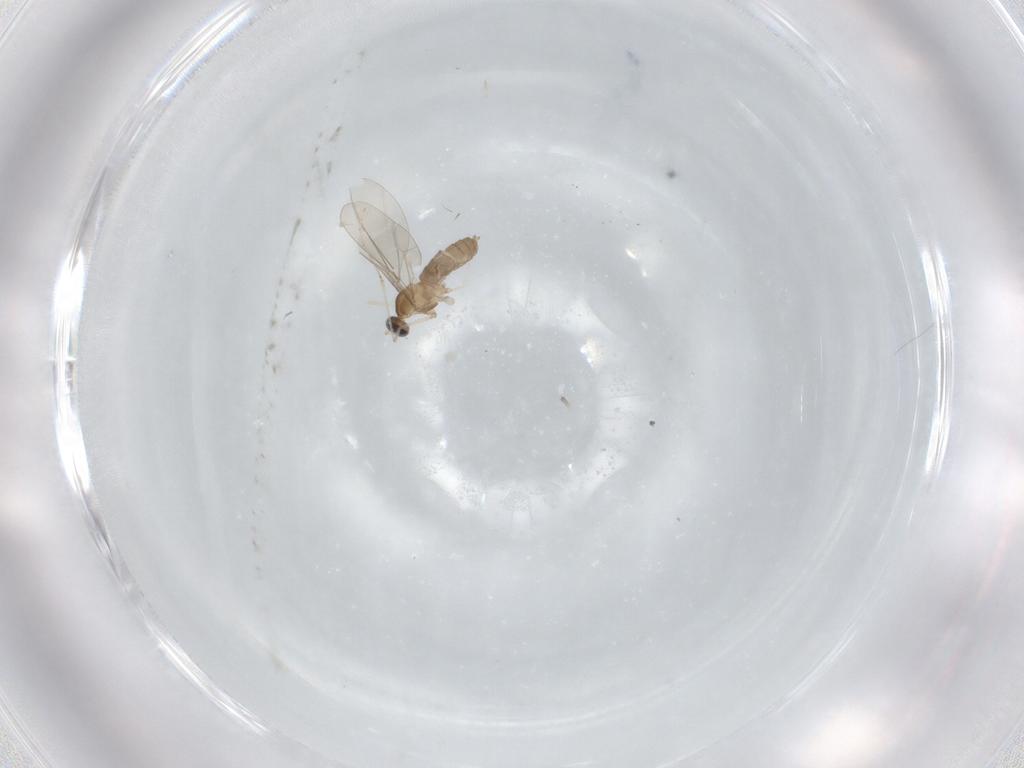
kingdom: Animalia
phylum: Arthropoda
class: Insecta
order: Diptera
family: Cecidomyiidae
